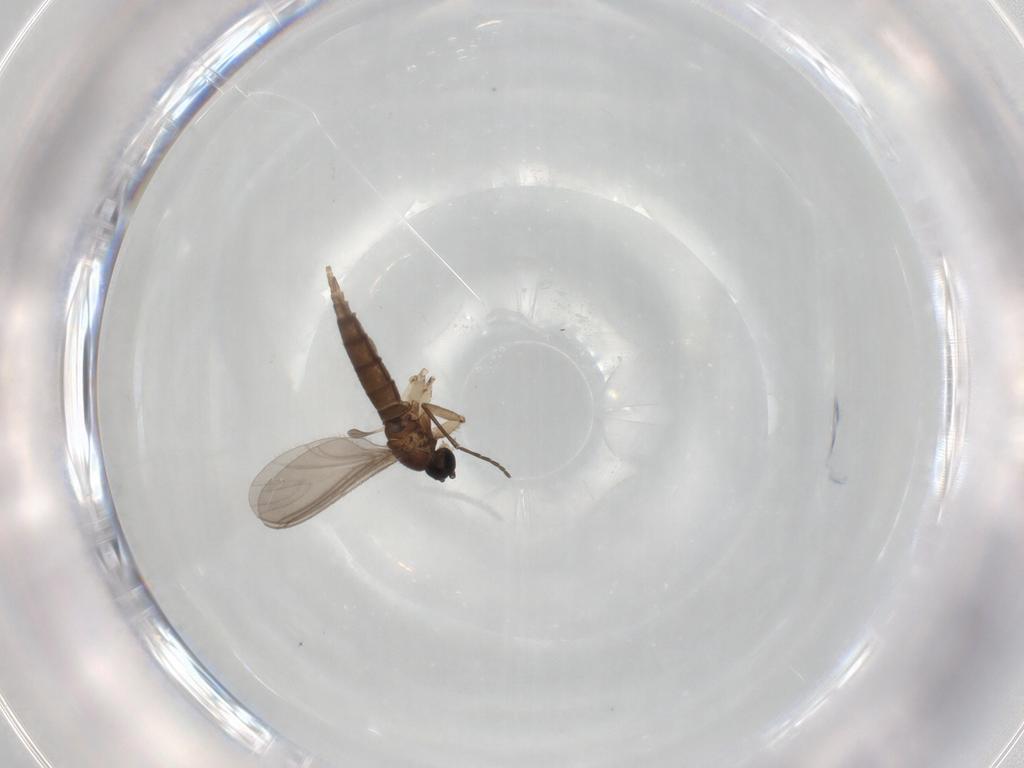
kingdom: Animalia
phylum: Arthropoda
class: Insecta
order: Diptera
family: Sciaridae
